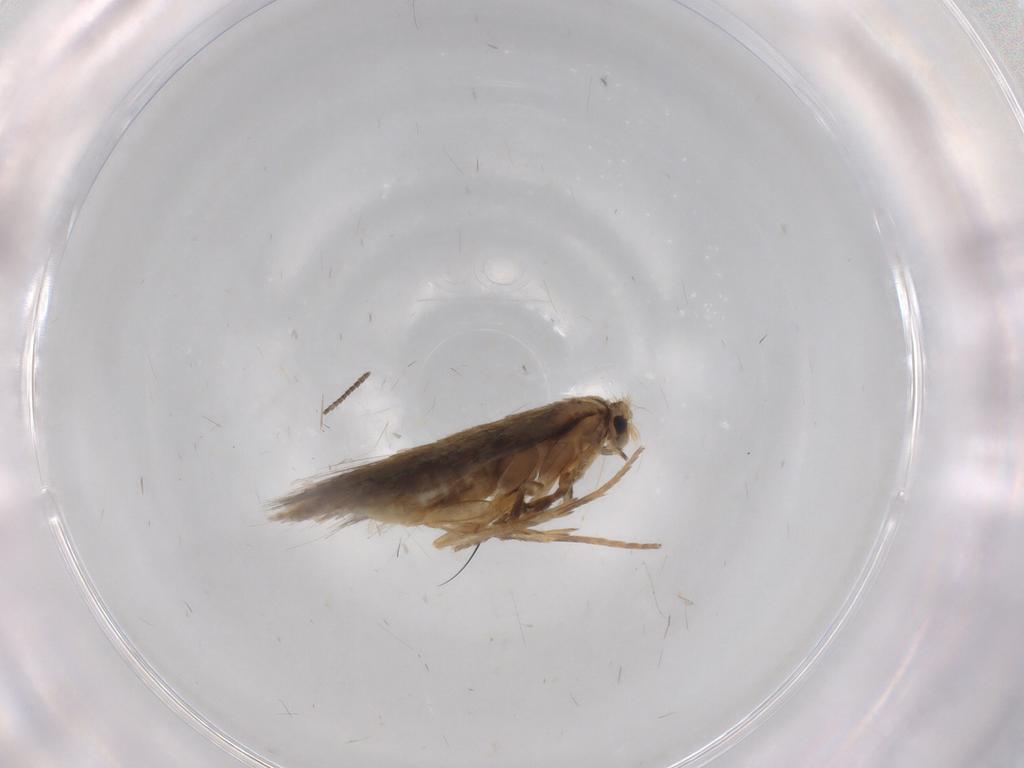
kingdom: Animalia
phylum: Arthropoda
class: Insecta
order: Lepidoptera
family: Nepticulidae
